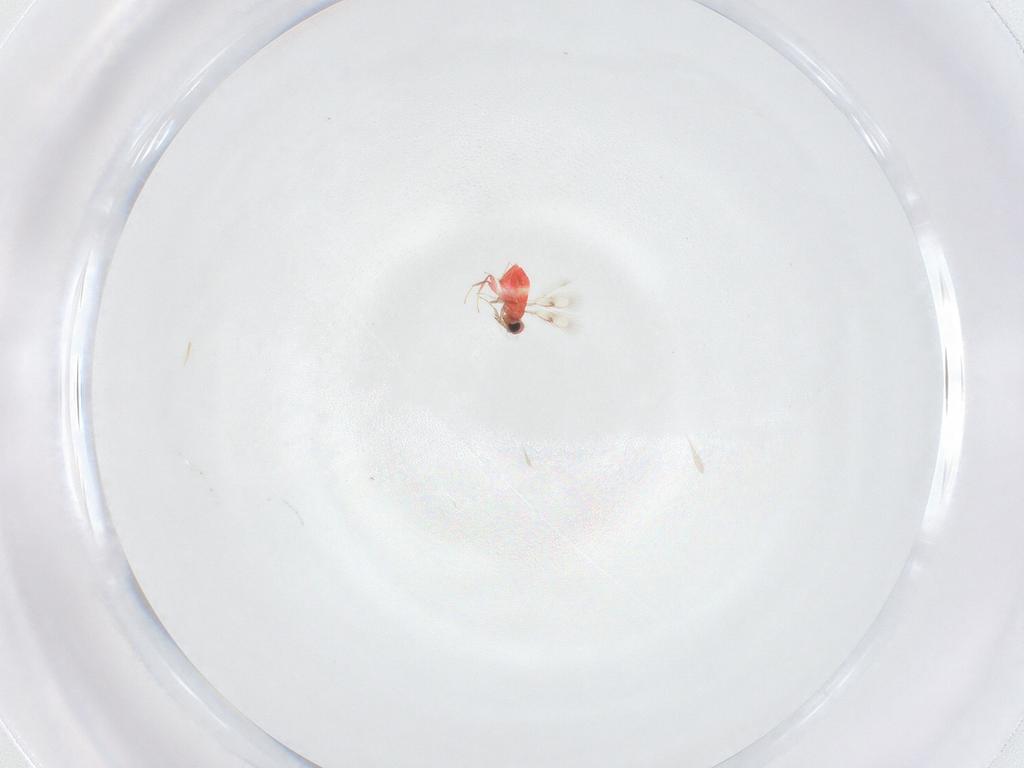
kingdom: Animalia
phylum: Arthropoda
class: Insecta
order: Hymenoptera
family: Trichogrammatidae
